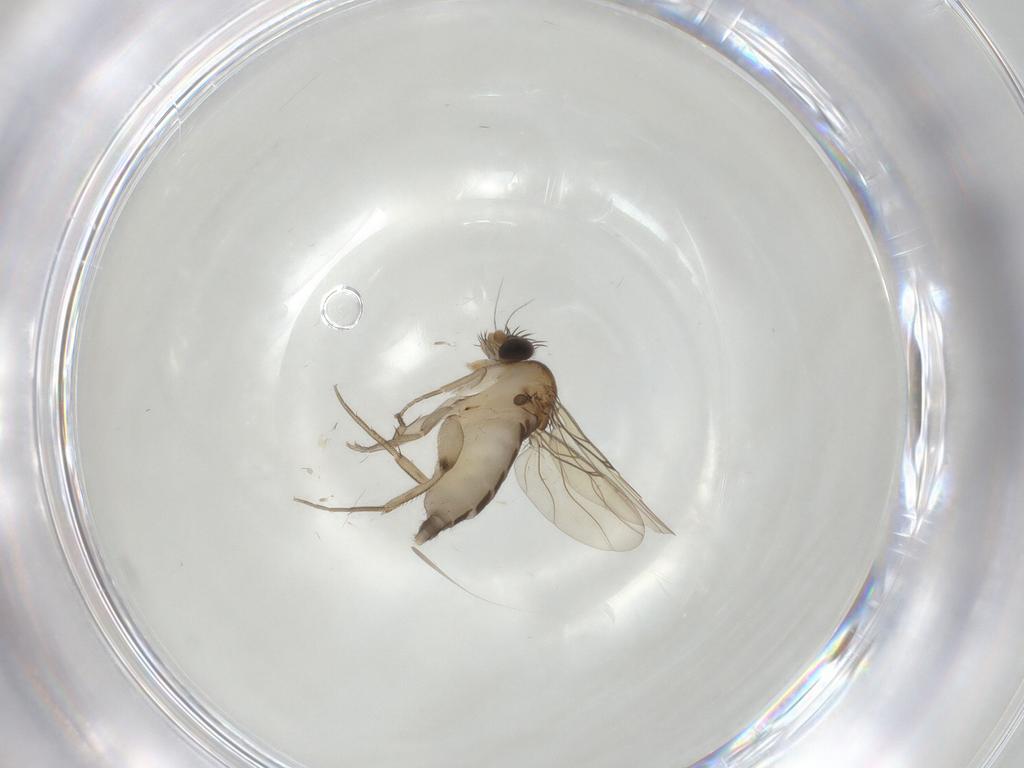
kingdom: Animalia
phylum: Arthropoda
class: Insecta
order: Diptera
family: Phoridae
